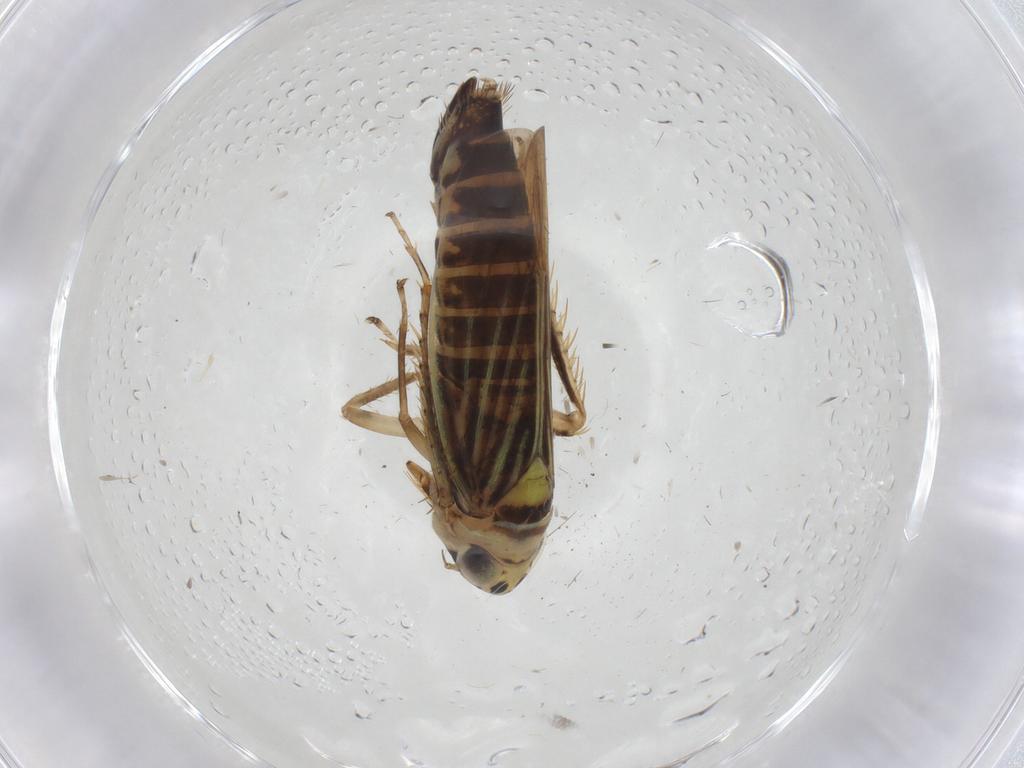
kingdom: Animalia
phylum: Arthropoda
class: Insecta
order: Hemiptera
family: Cicadellidae
